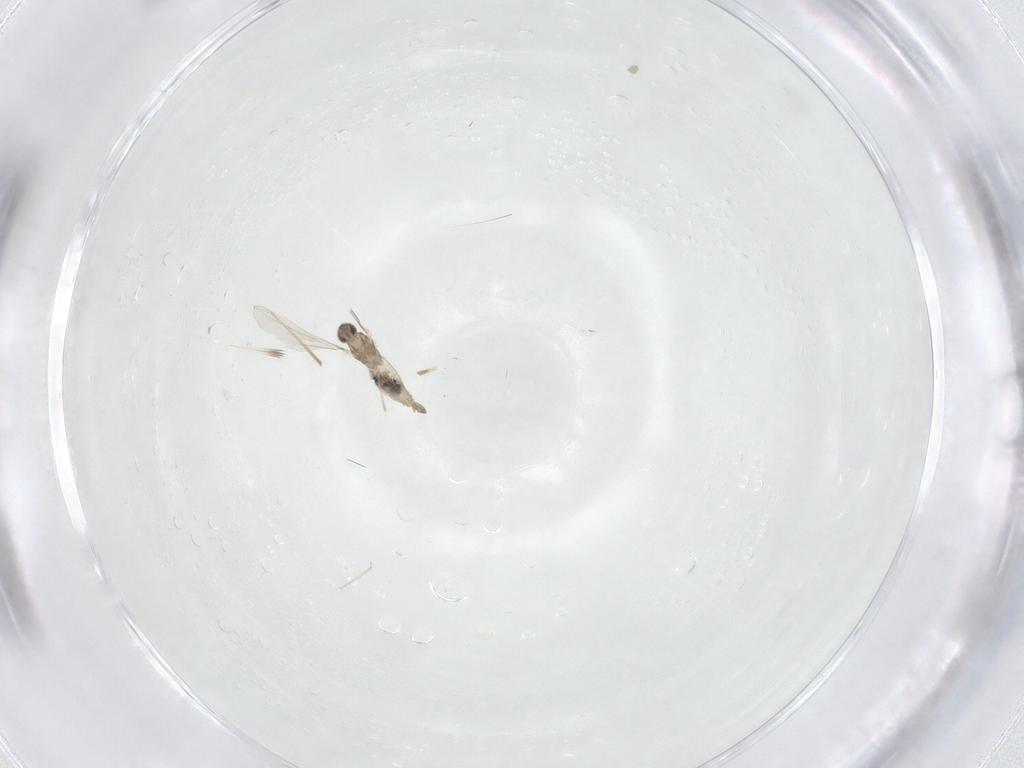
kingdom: Animalia
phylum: Arthropoda
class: Insecta
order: Diptera
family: Cecidomyiidae
